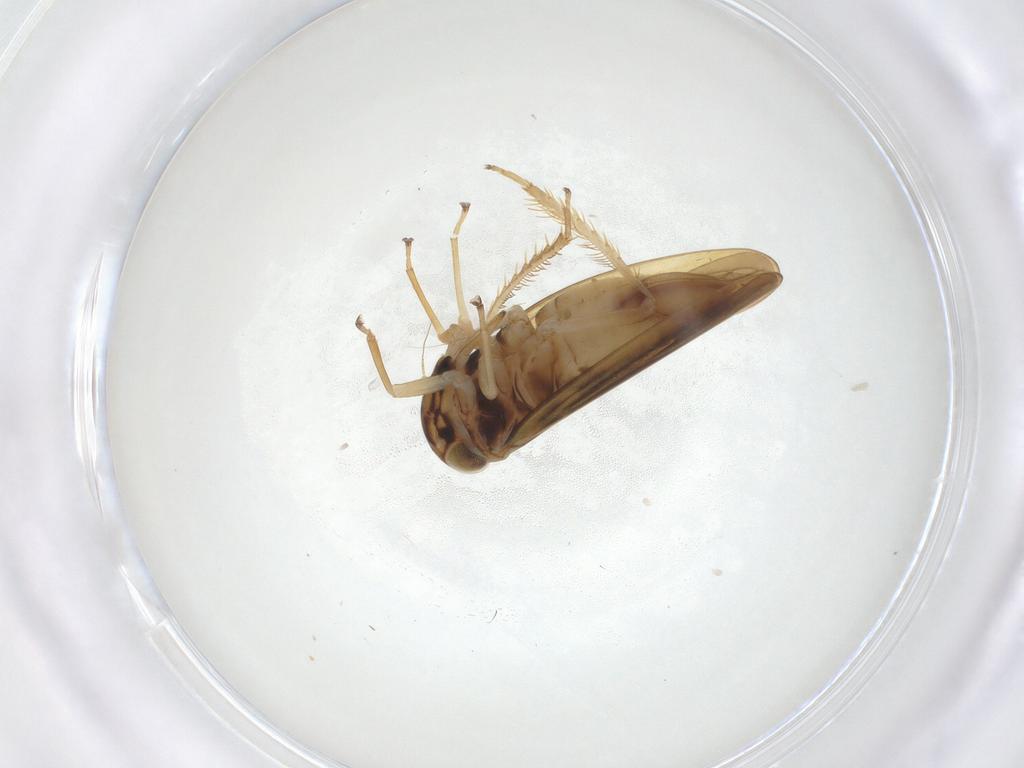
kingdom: Animalia
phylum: Arthropoda
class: Insecta
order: Hemiptera
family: Cicadellidae
